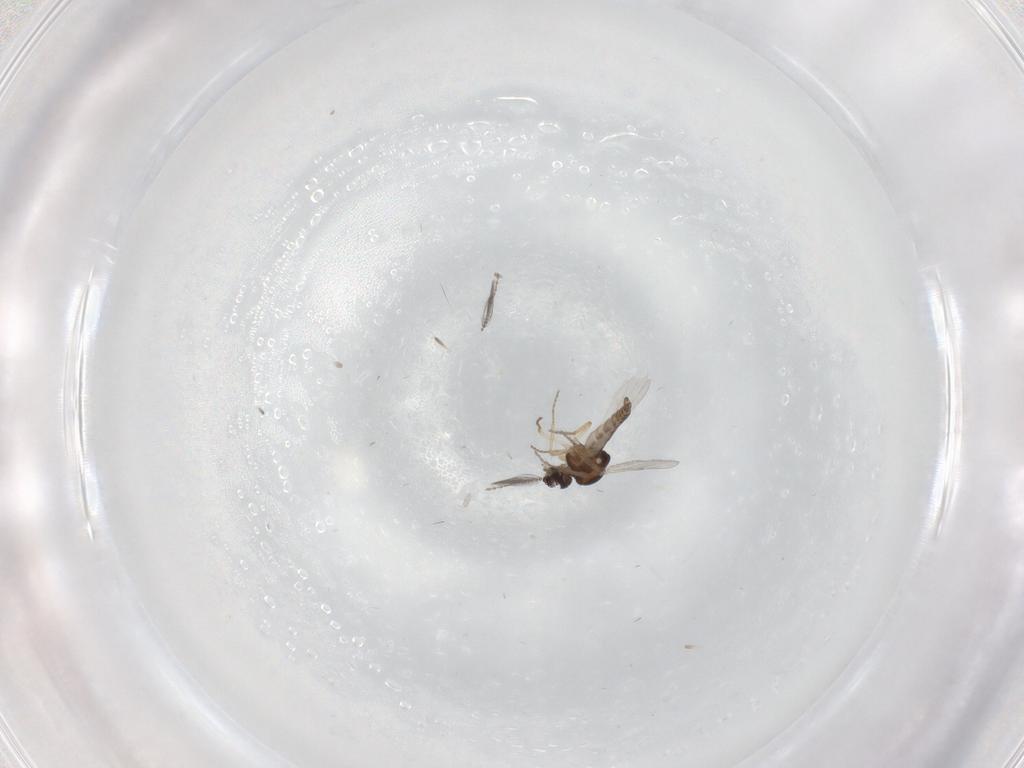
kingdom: Animalia
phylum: Arthropoda
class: Insecta
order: Diptera
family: Ceratopogonidae
